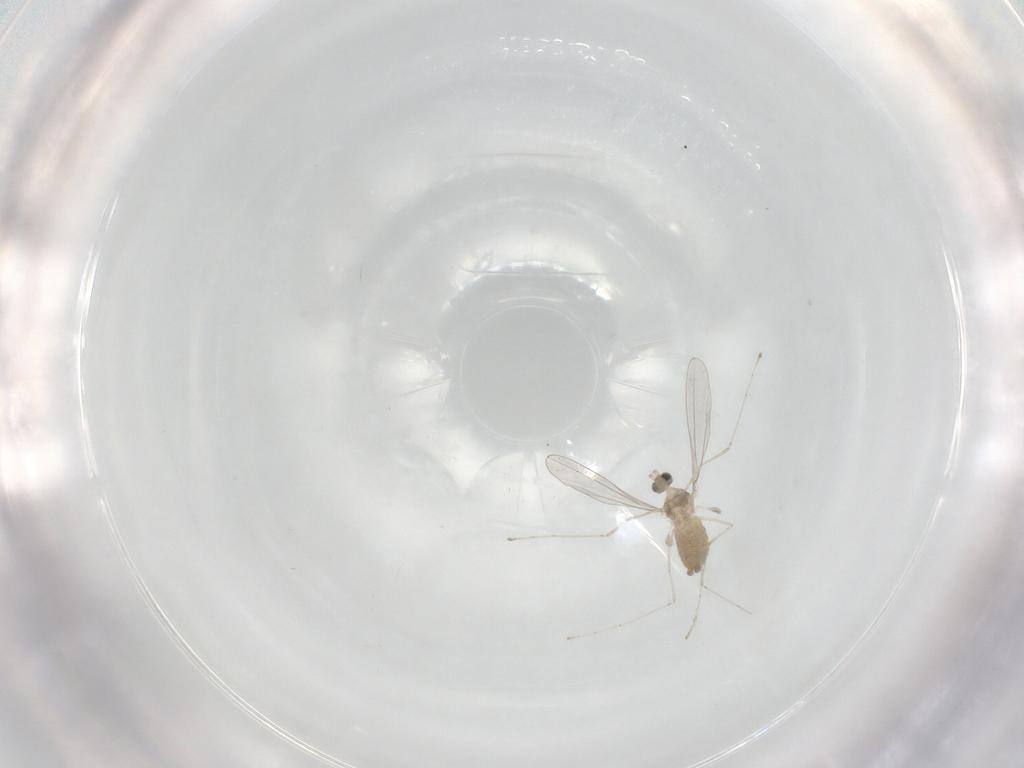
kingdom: Animalia
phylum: Arthropoda
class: Insecta
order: Diptera
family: Cecidomyiidae
